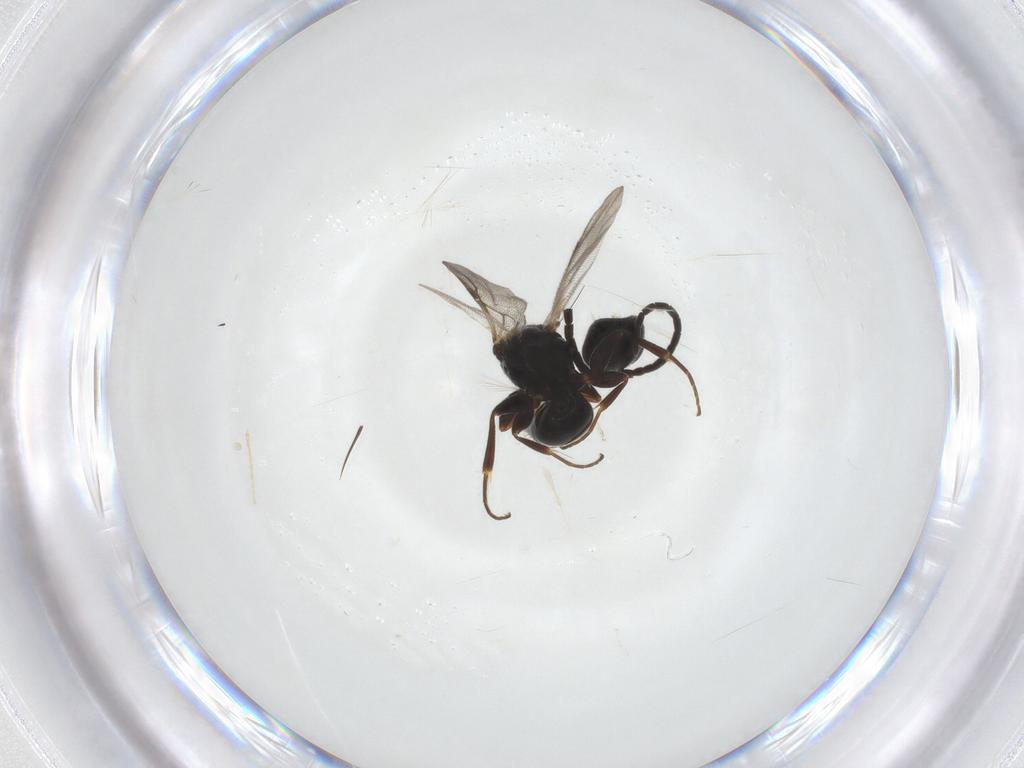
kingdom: Animalia
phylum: Arthropoda
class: Insecta
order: Hymenoptera
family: Bethylidae
